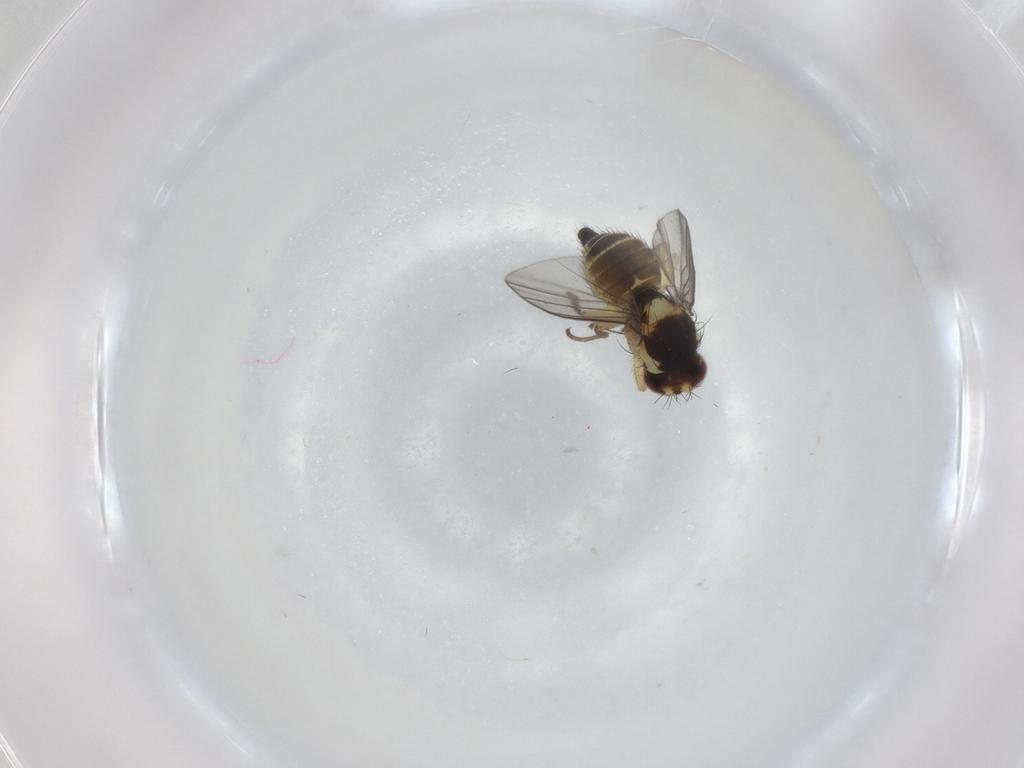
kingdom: Animalia
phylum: Arthropoda
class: Insecta
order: Diptera
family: Agromyzidae
